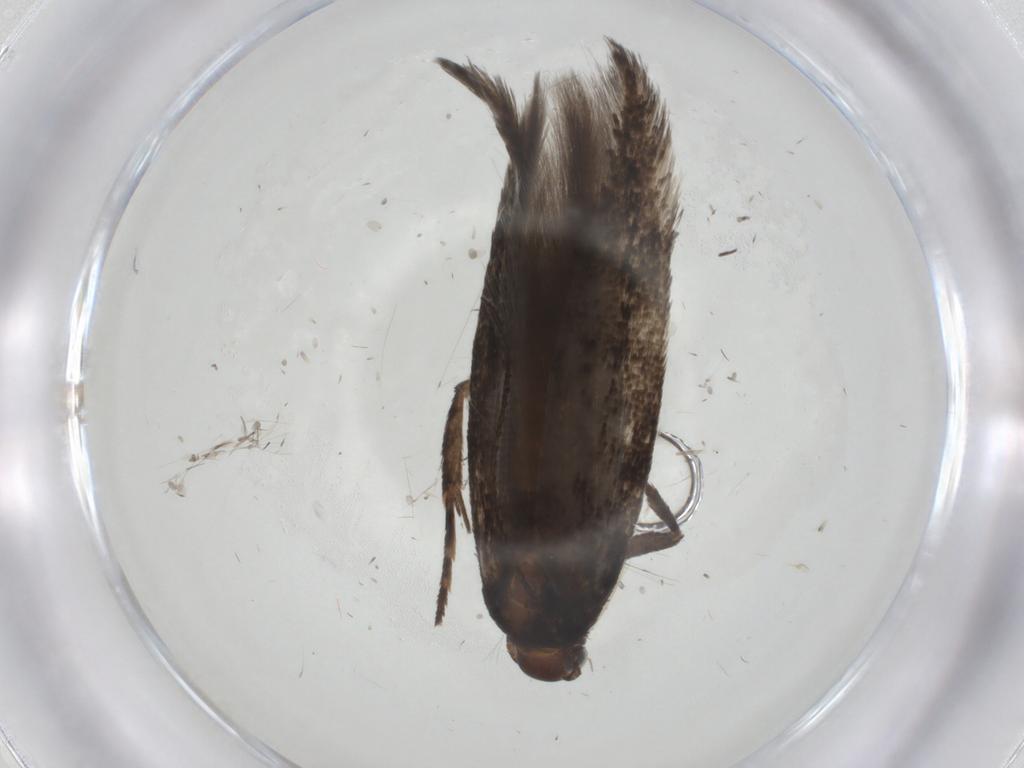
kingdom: Animalia
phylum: Arthropoda
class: Insecta
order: Lepidoptera
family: Gelechiidae
